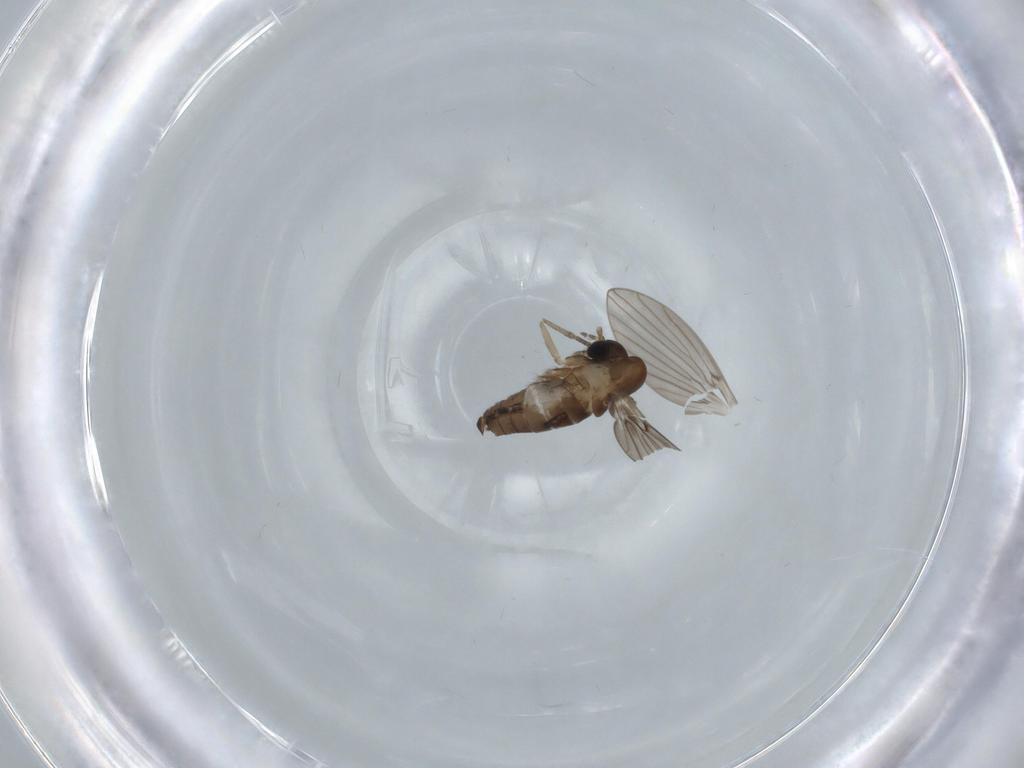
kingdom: Animalia
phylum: Arthropoda
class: Insecta
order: Diptera
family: Psychodidae
